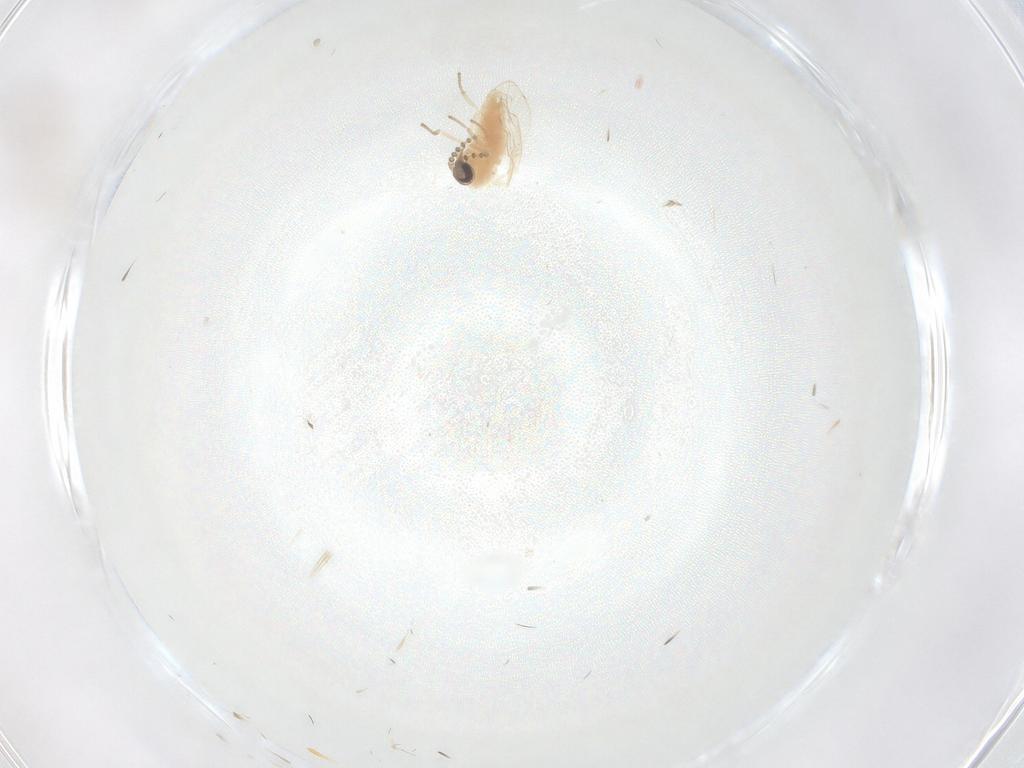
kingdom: Animalia
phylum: Arthropoda
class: Insecta
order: Diptera
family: Psychodidae
